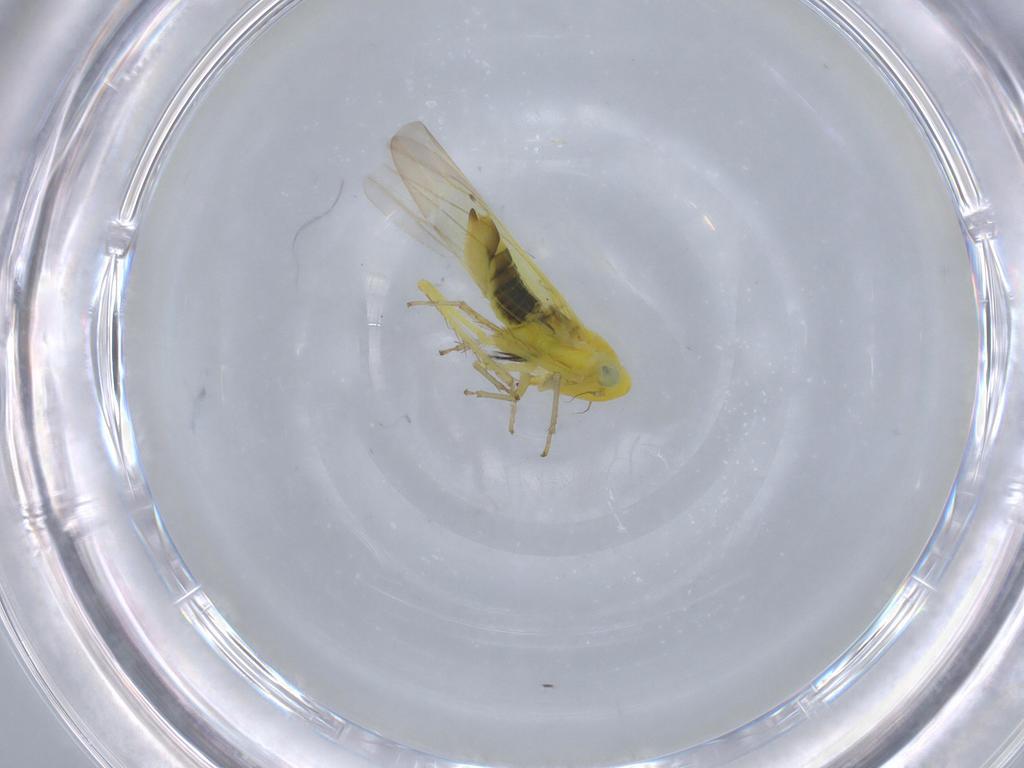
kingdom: Animalia
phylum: Arthropoda
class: Insecta
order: Hemiptera
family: Cicadellidae
